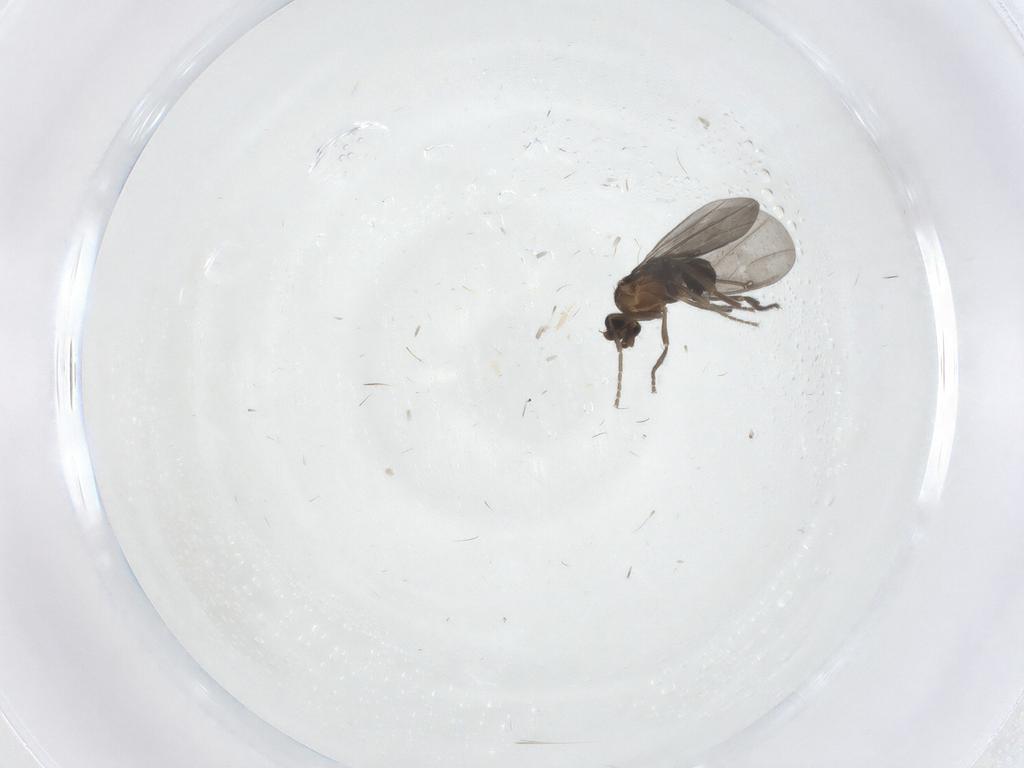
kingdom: Animalia
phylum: Arthropoda
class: Insecta
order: Diptera
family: Phoridae
